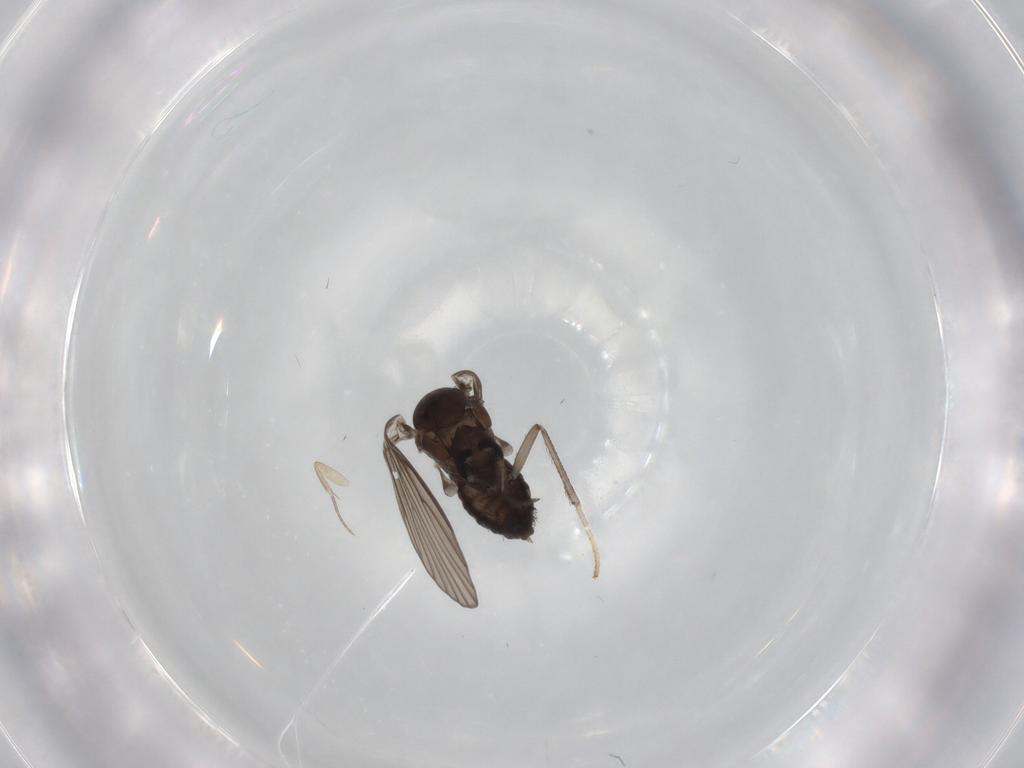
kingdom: Animalia
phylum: Arthropoda
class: Insecta
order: Diptera
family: Psychodidae
